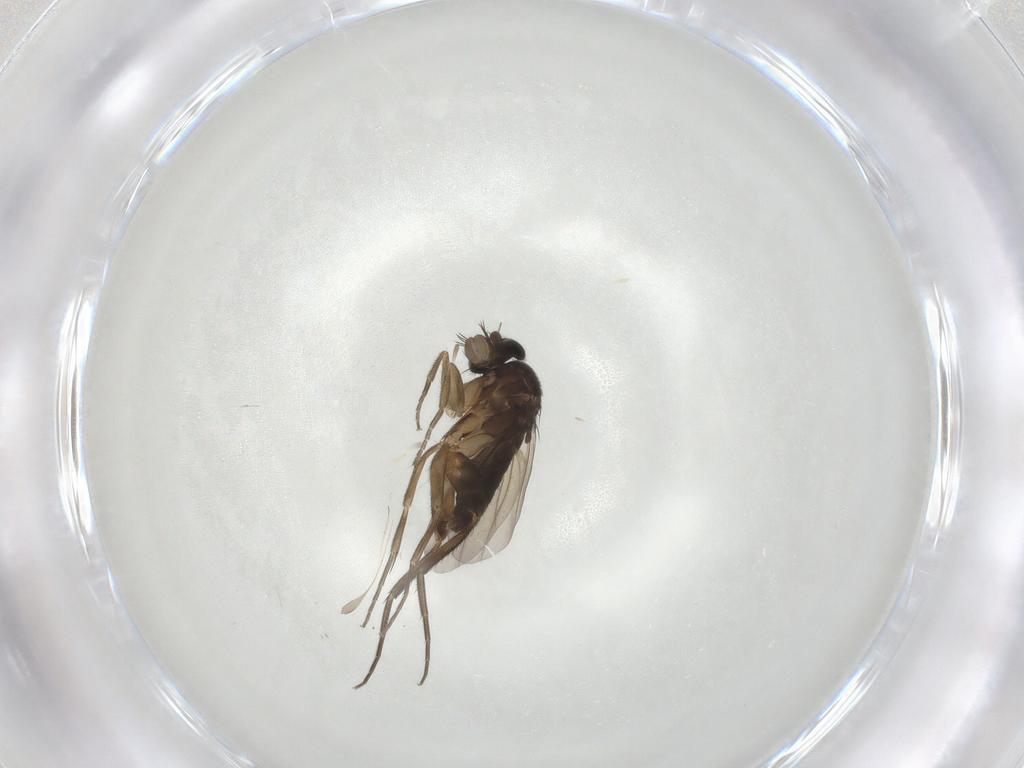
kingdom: Animalia
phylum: Arthropoda
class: Insecta
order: Diptera
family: Phoridae
